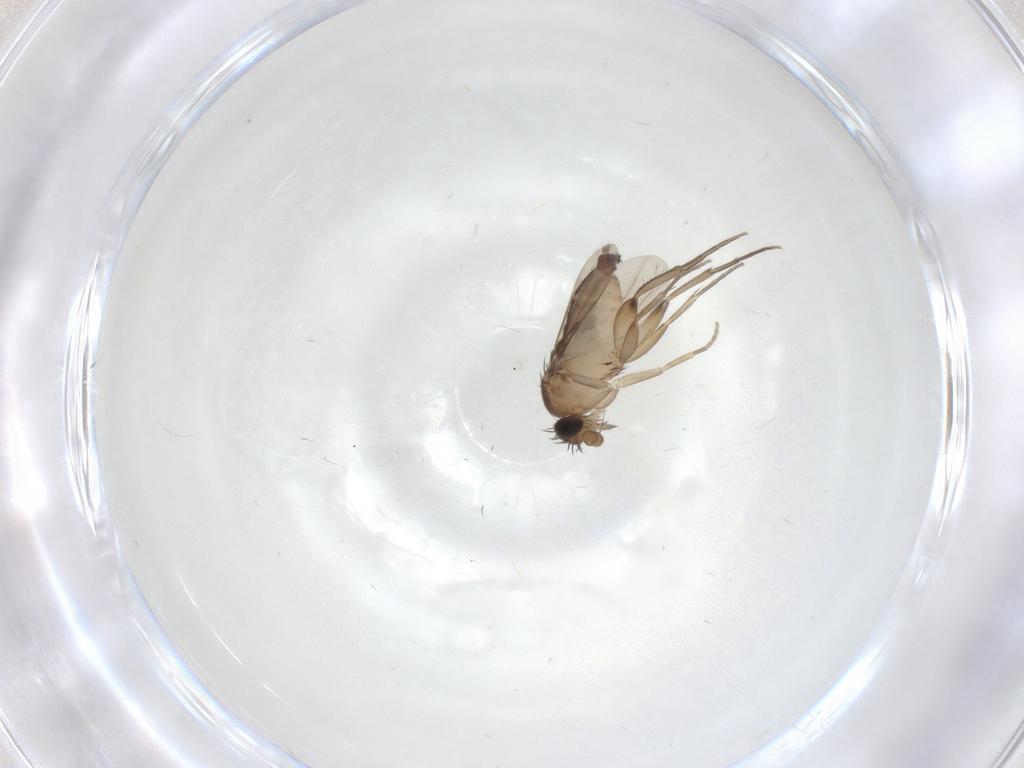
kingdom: Animalia
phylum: Arthropoda
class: Insecta
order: Diptera
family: Phoridae
